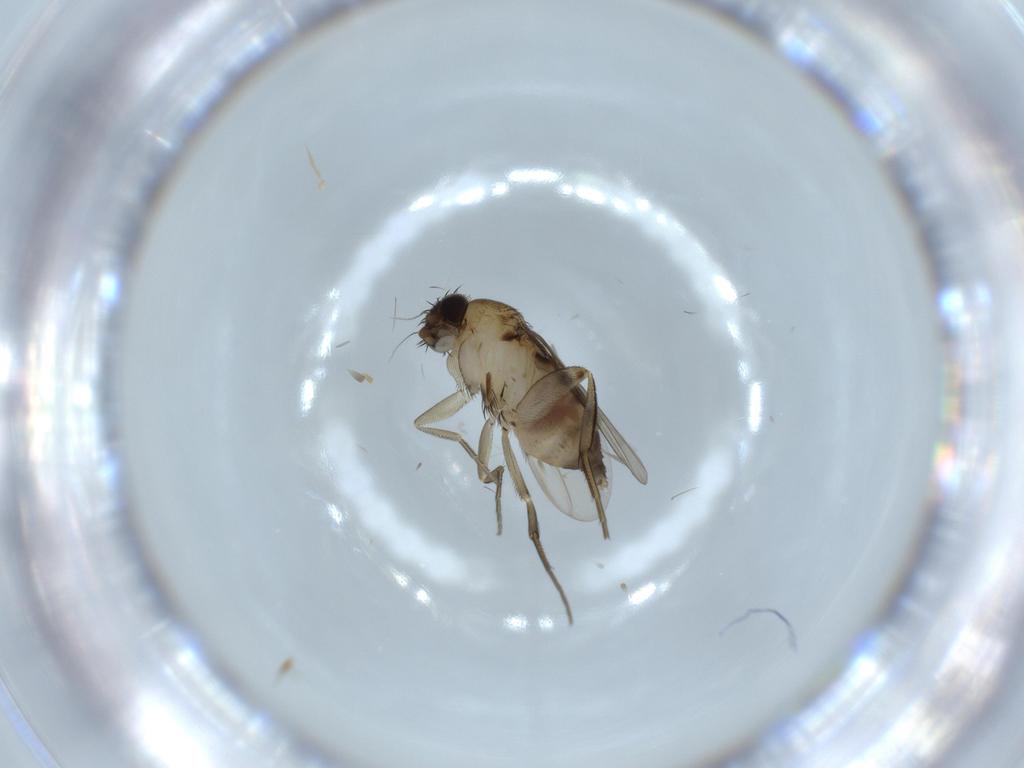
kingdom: Animalia
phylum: Arthropoda
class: Insecta
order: Diptera
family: Phoridae
